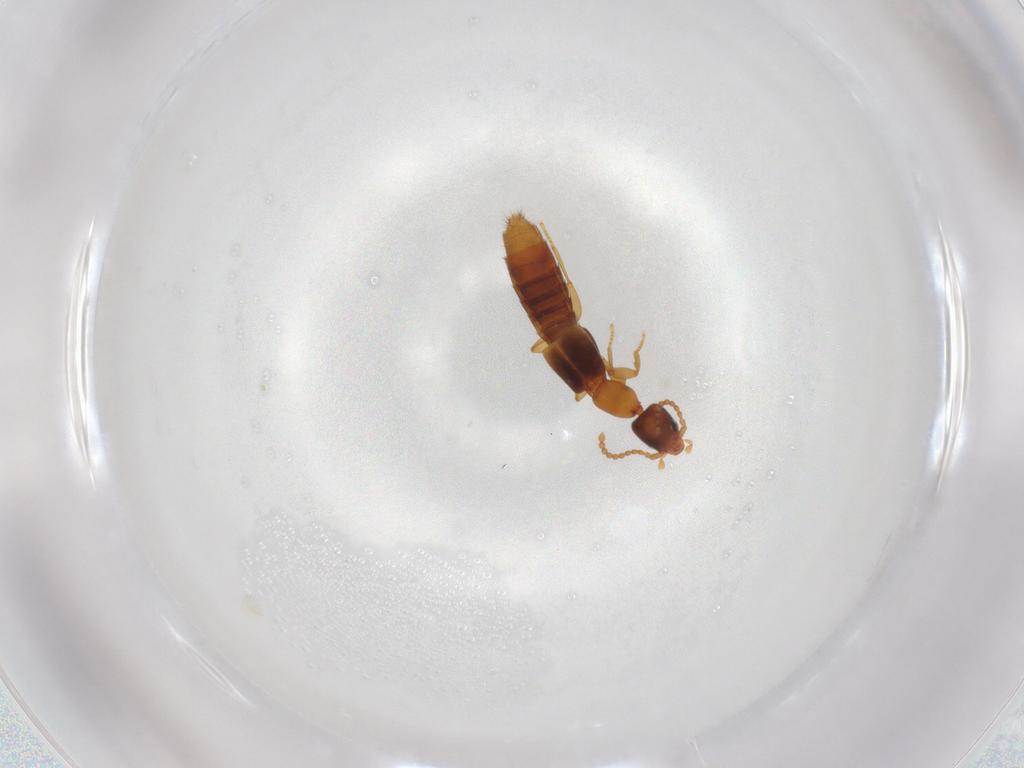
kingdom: Animalia
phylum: Arthropoda
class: Insecta
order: Coleoptera
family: Staphylinidae
